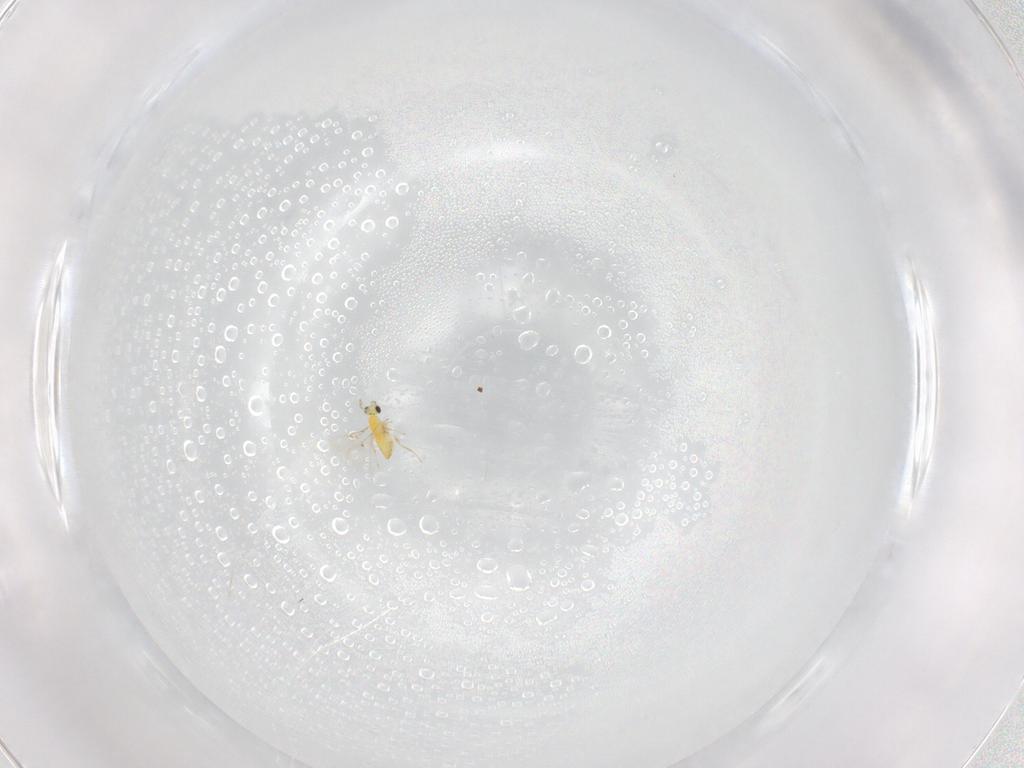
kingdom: Animalia
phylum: Arthropoda
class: Insecta
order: Hymenoptera
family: Trichogrammatidae
